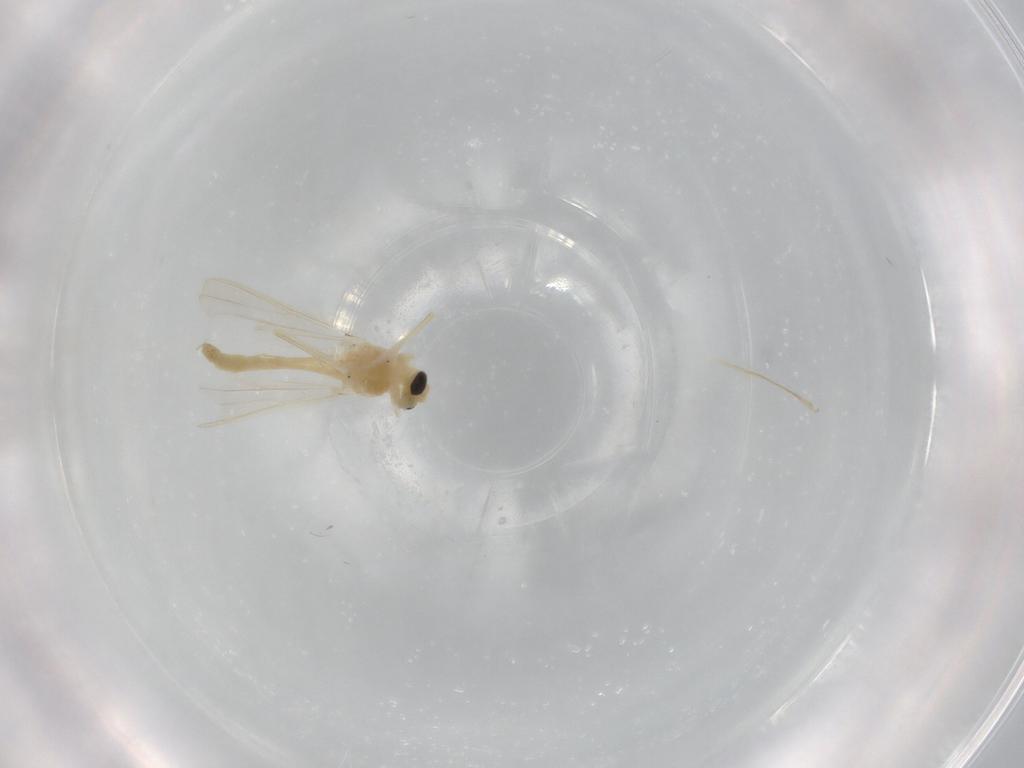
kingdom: Animalia
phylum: Arthropoda
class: Insecta
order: Diptera
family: Chironomidae
